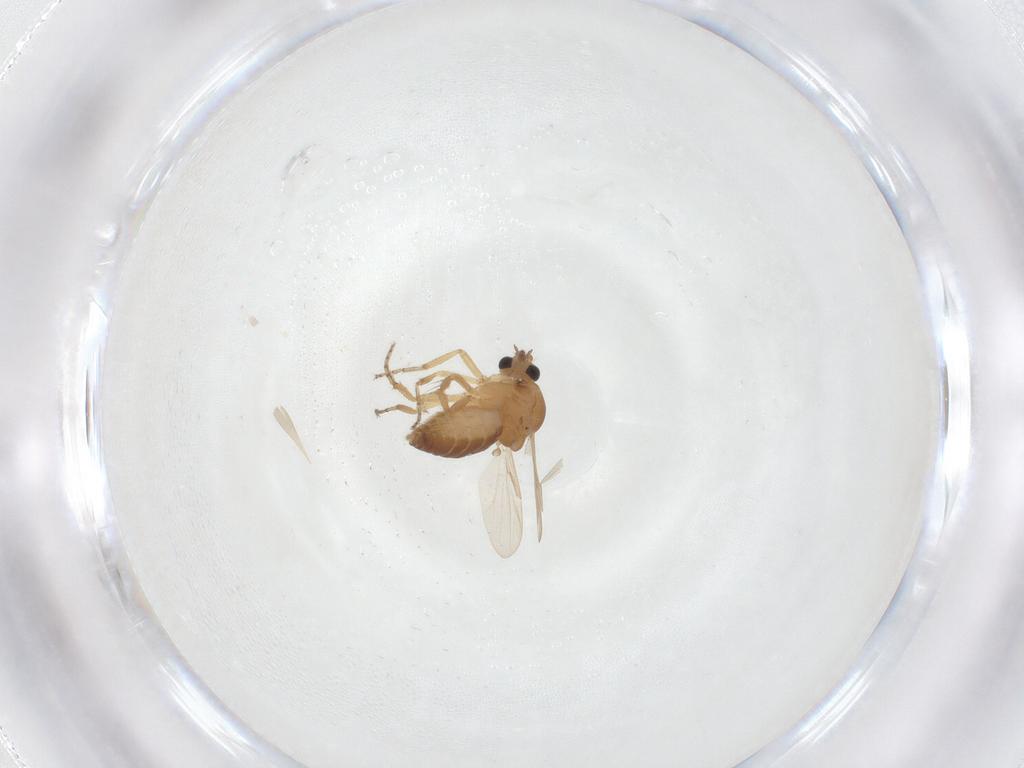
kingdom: Animalia
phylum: Arthropoda
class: Insecta
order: Diptera
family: Ceratopogonidae
